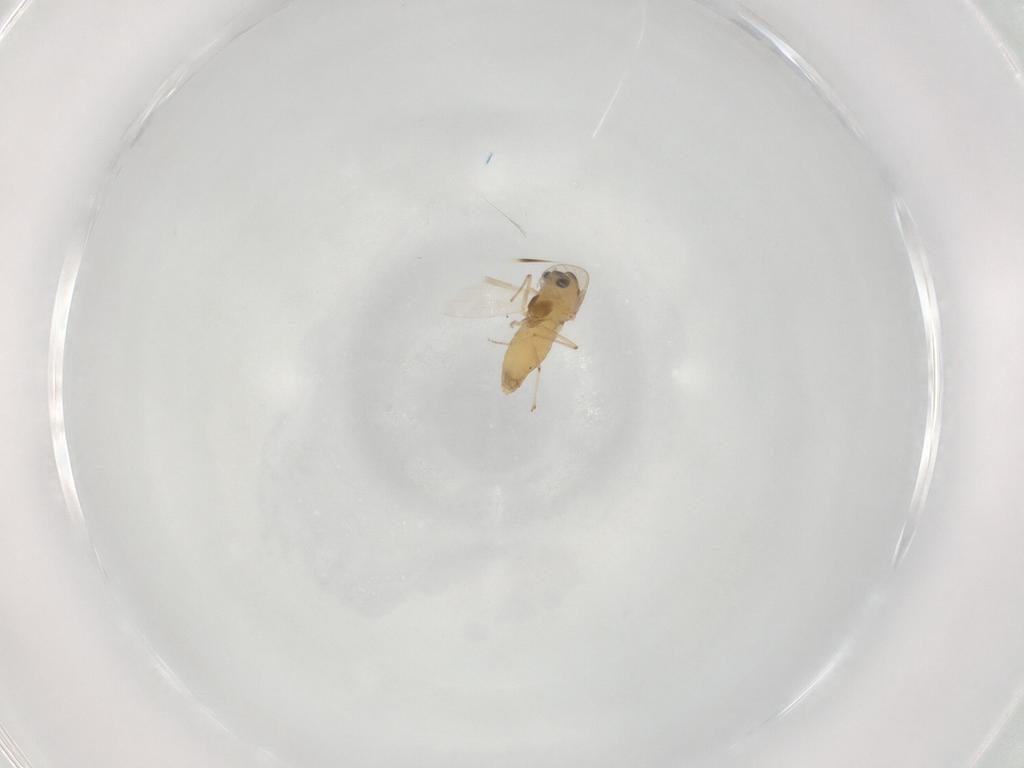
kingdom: Animalia
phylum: Arthropoda
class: Insecta
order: Diptera
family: Chironomidae
